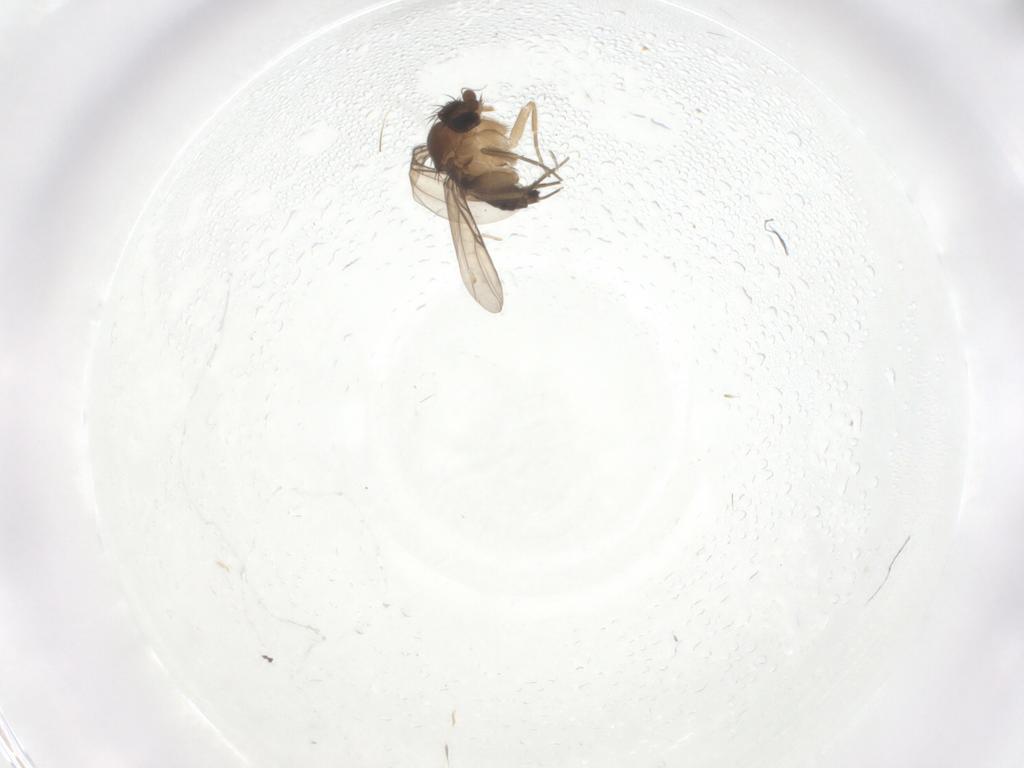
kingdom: Animalia
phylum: Arthropoda
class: Insecta
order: Diptera
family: Phoridae
